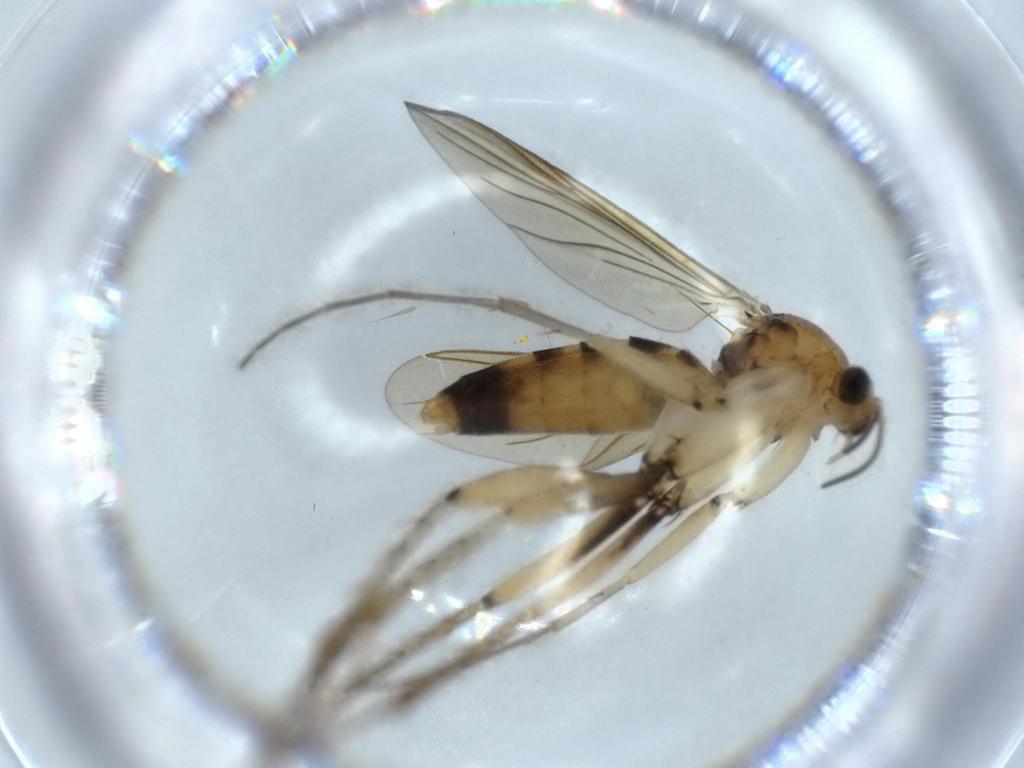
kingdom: Animalia
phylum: Arthropoda
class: Insecta
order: Diptera
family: Mycetophilidae
